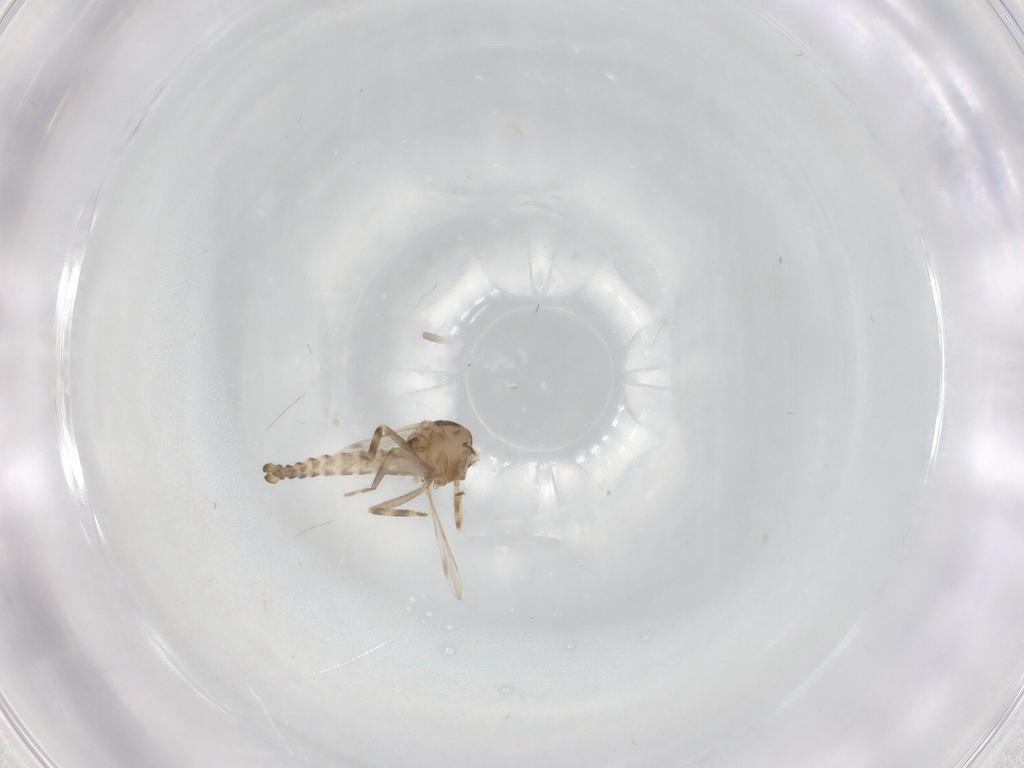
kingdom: Animalia
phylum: Arthropoda
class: Insecta
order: Diptera
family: Ceratopogonidae
